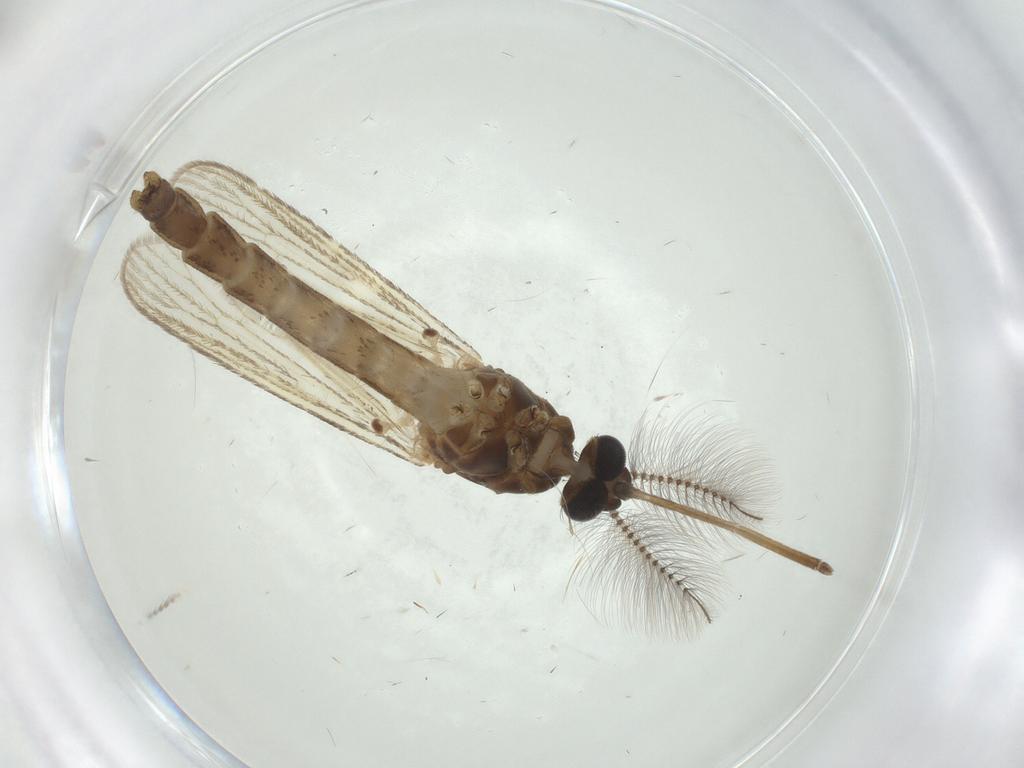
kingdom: Animalia
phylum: Arthropoda
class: Insecta
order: Diptera
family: Chironomidae
